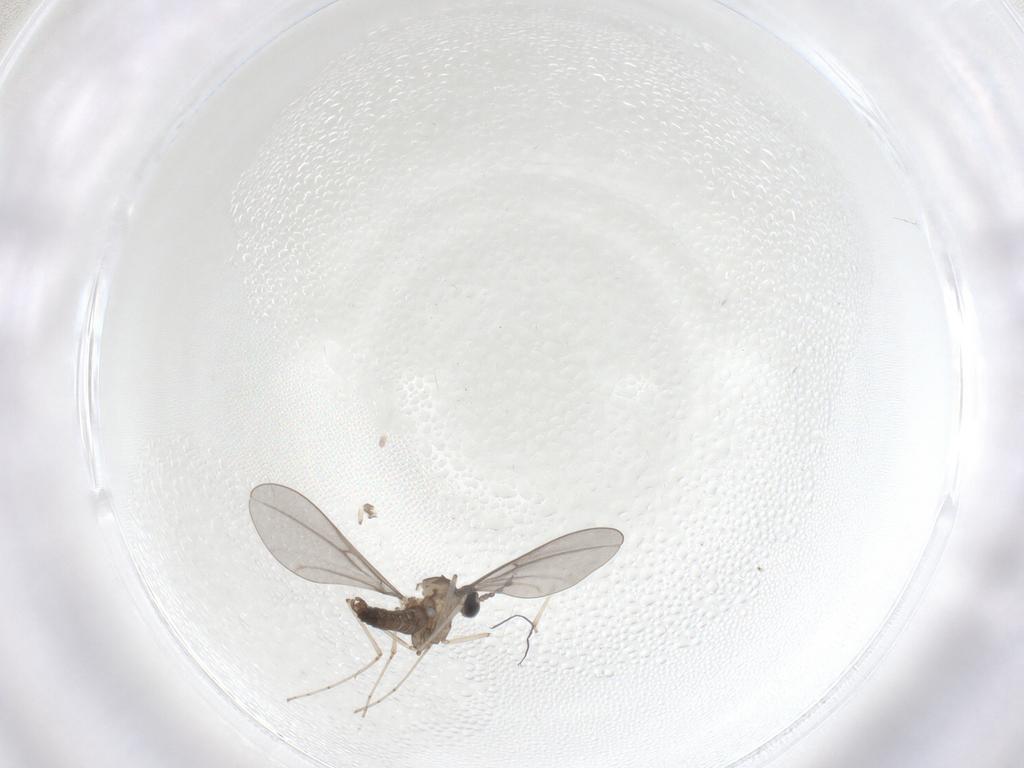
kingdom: Animalia
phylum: Arthropoda
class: Insecta
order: Diptera
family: Cecidomyiidae
